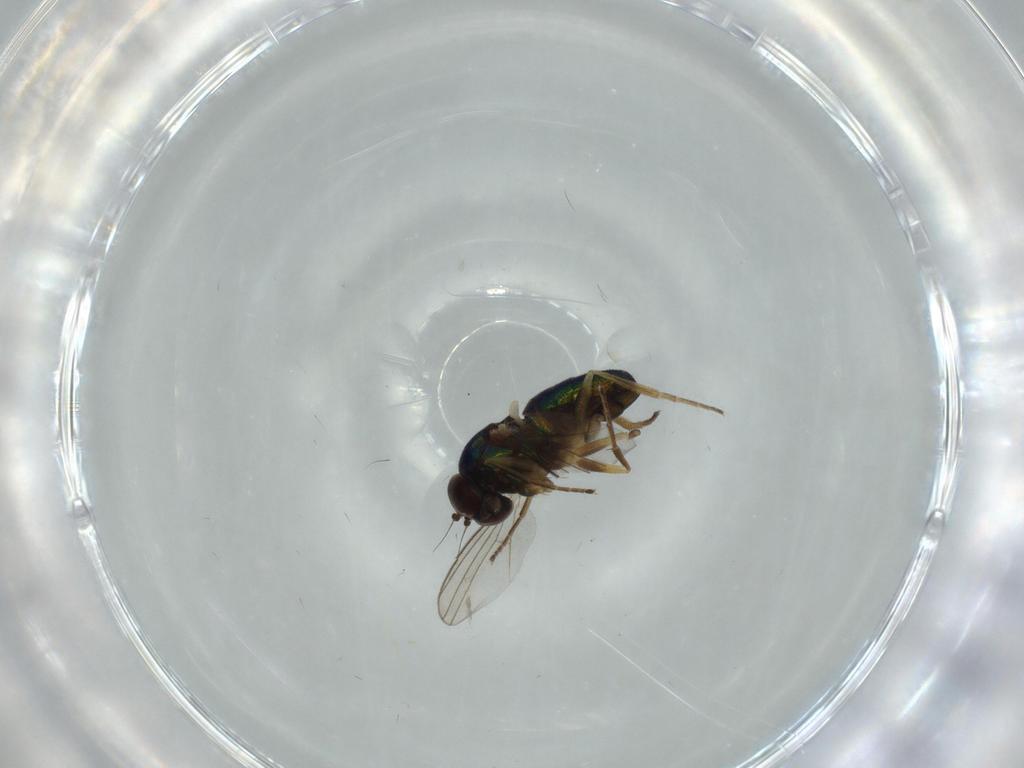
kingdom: Animalia
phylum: Arthropoda
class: Insecta
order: Diptera
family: Dolichopodidae
